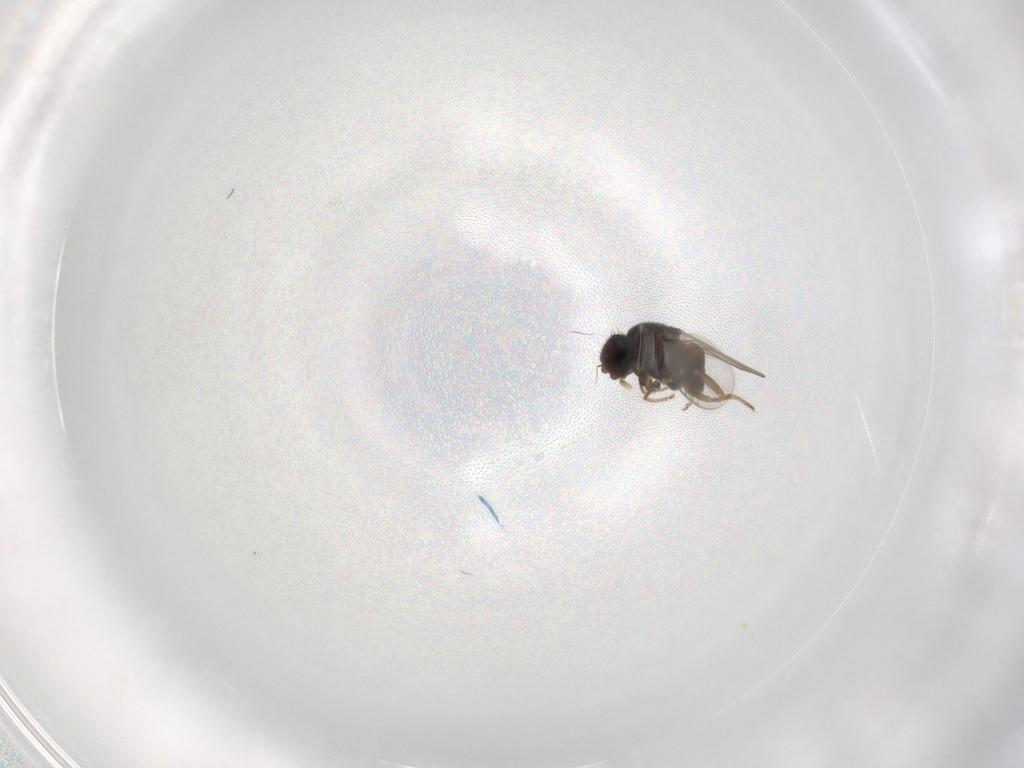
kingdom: Animalia
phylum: Arthropoda
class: Insecta
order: Diptera
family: Chloropidae
